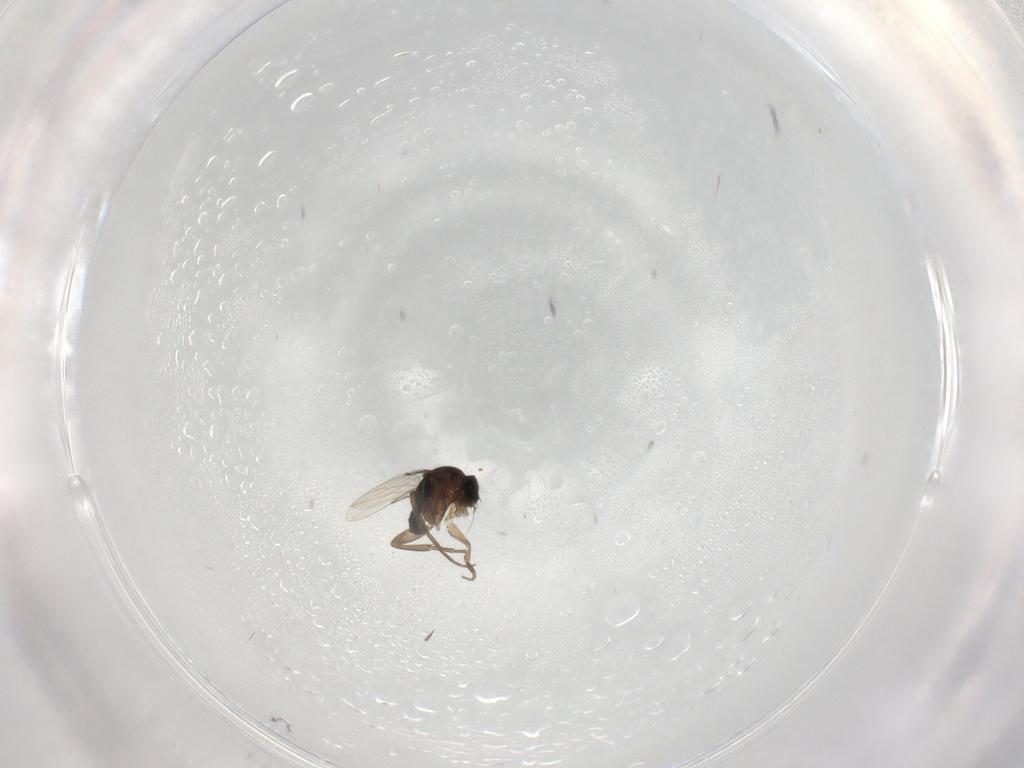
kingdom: Animalia
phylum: Arthropoda
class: Insecta
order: Diptera
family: Phoridae
